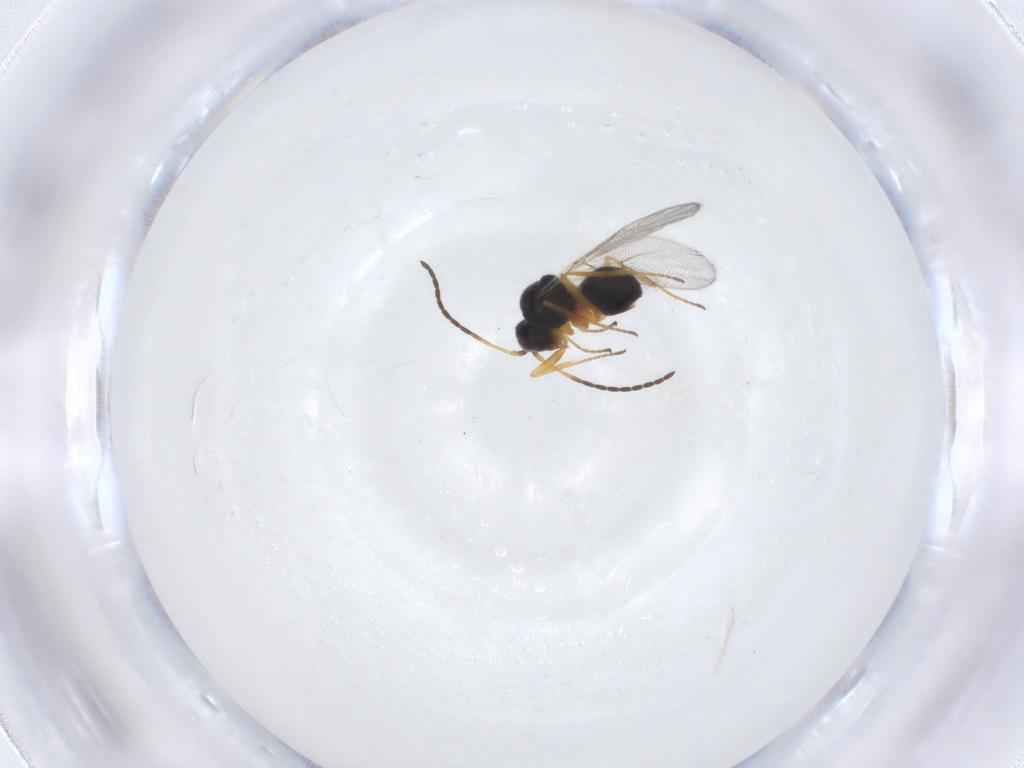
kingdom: Animalia
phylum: Arthropoda
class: Insecta
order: Hymenoptera
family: Figitidae
